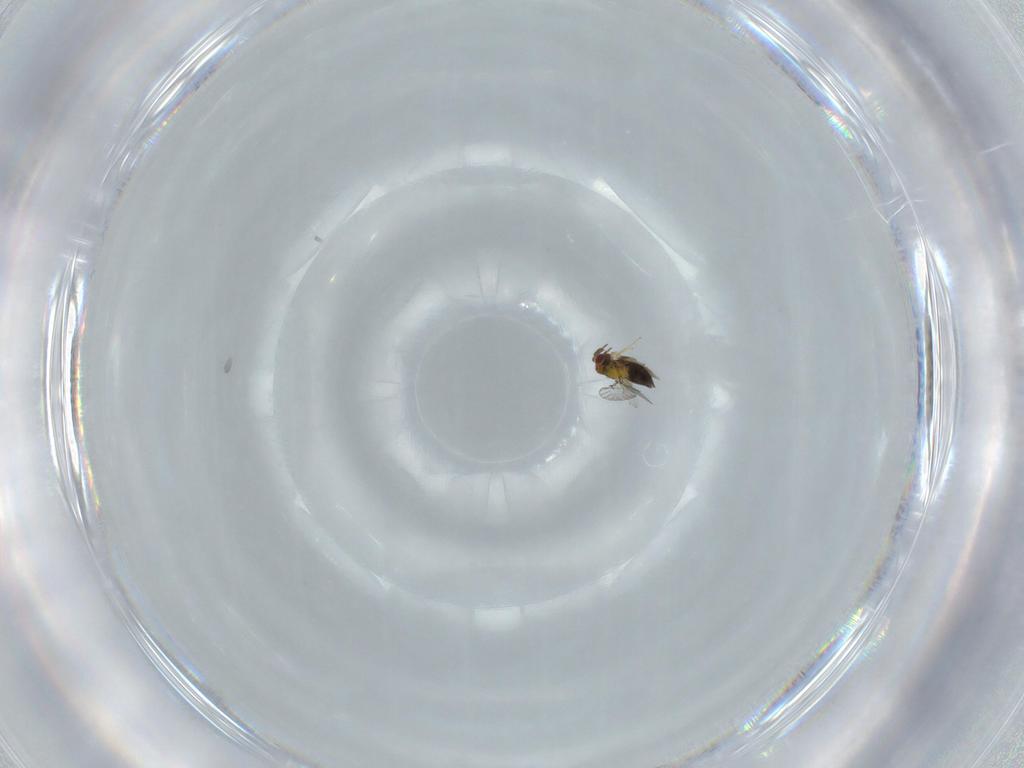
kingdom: Animalia
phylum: Arthropoda
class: Insecta
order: Hymenoptera
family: Trichogrammatidae
